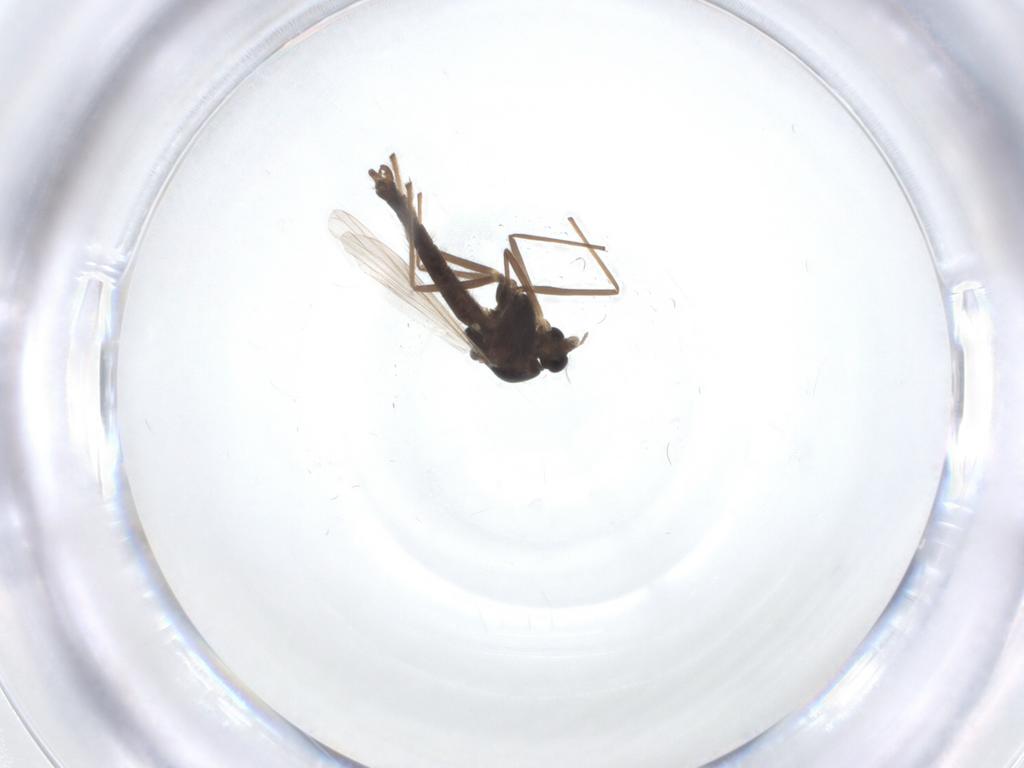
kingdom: Animalia
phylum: Arthropoda
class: Insecta
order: Diptera
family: Chironomidae
